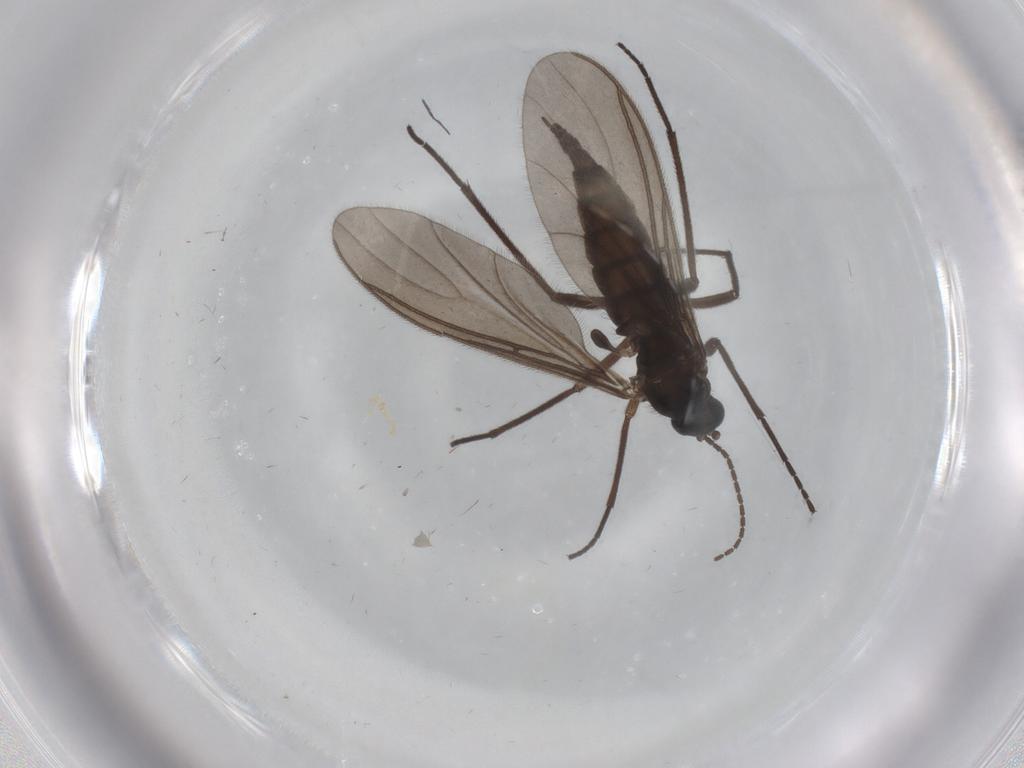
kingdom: Animalia
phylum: Arthropoda
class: Insecta
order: Diptera
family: Sciaridae
